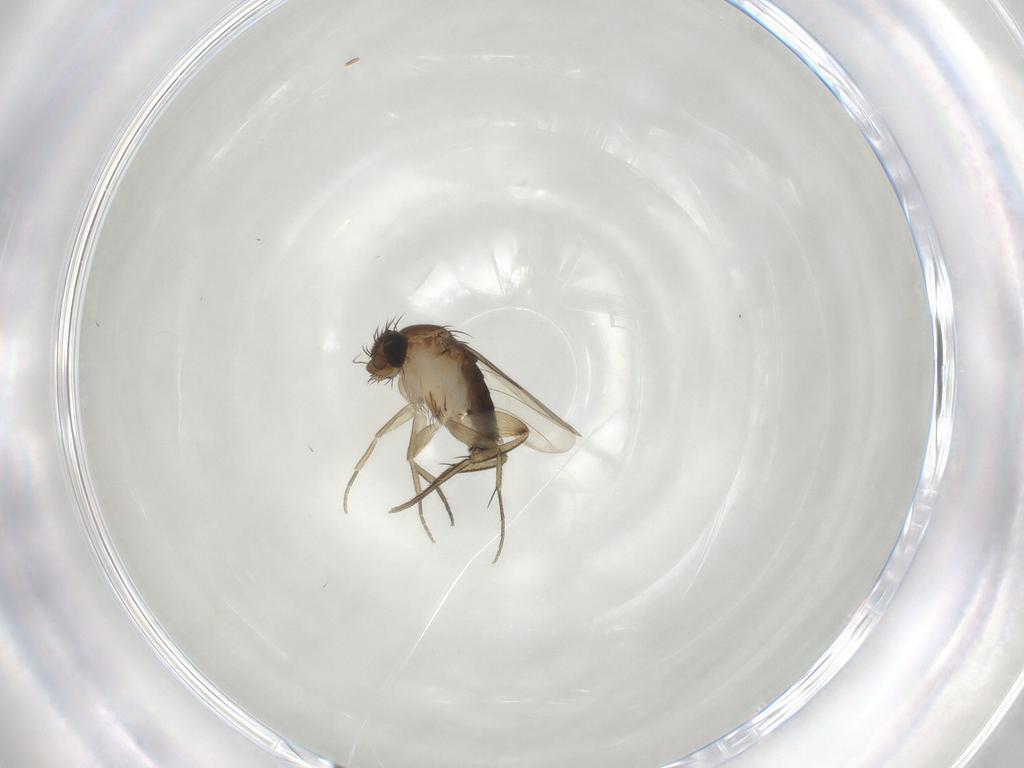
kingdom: Animalia
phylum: Arthropoda
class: Insecta
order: Diptera
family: Phoridae
